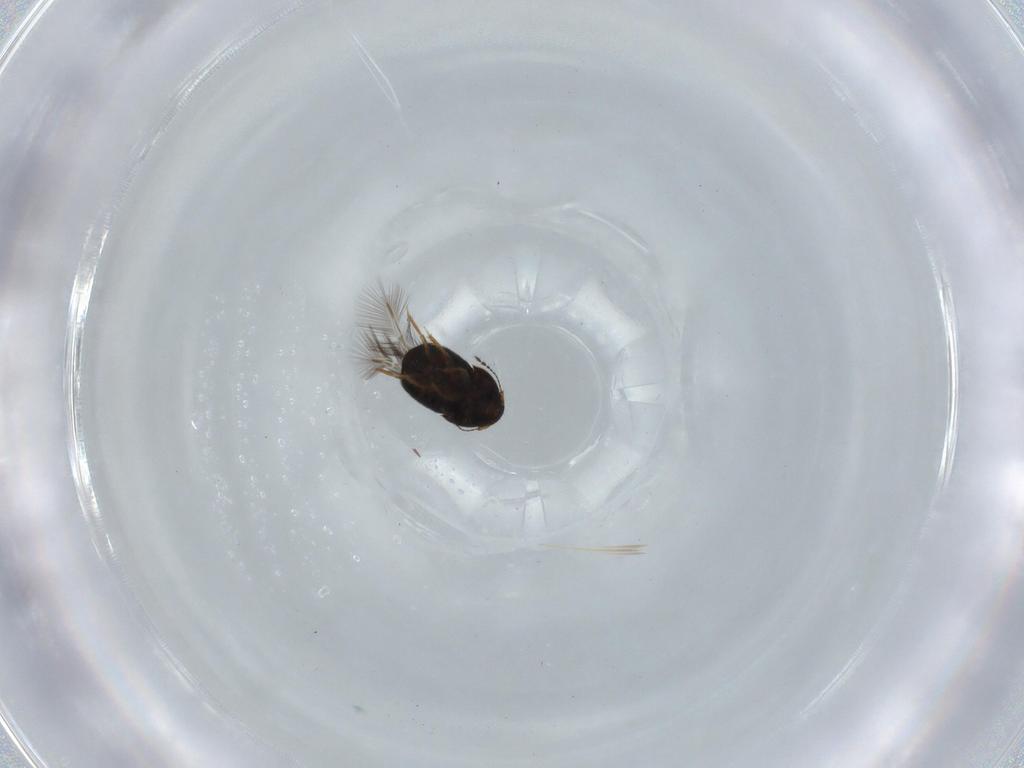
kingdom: Animalia
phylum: Arthropoda
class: Insecta
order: Coleoptera
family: Ptiliidae
